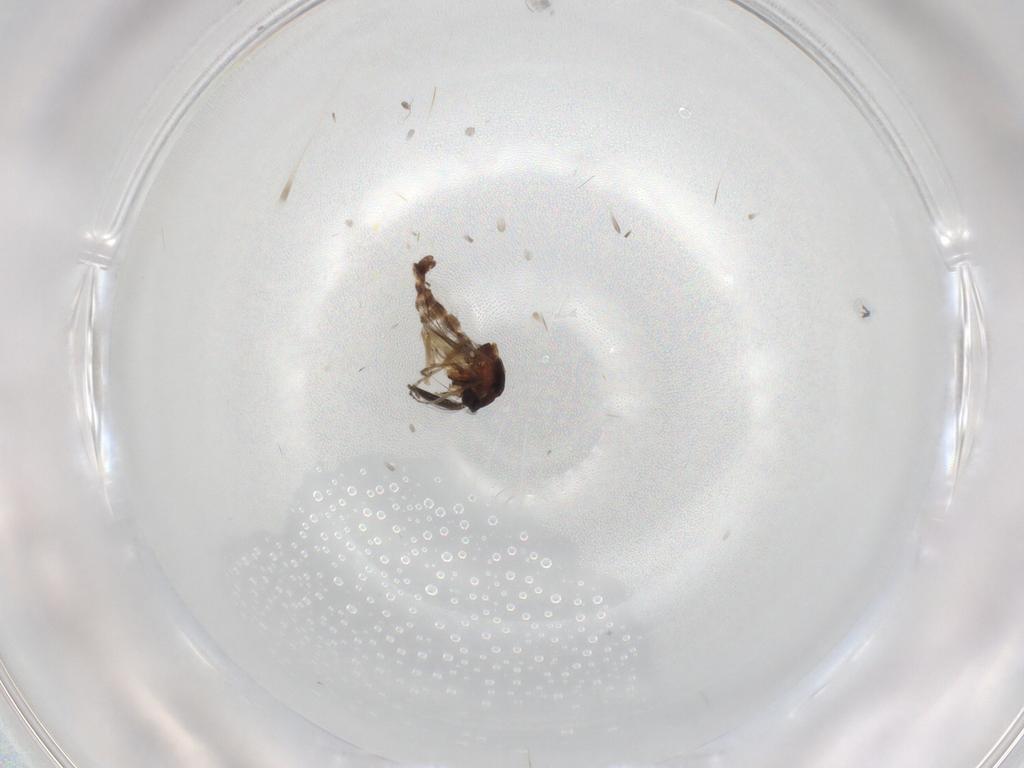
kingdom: Animalia
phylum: Arthropoda
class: Insecta
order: Diptera
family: Ceratopogonidae
